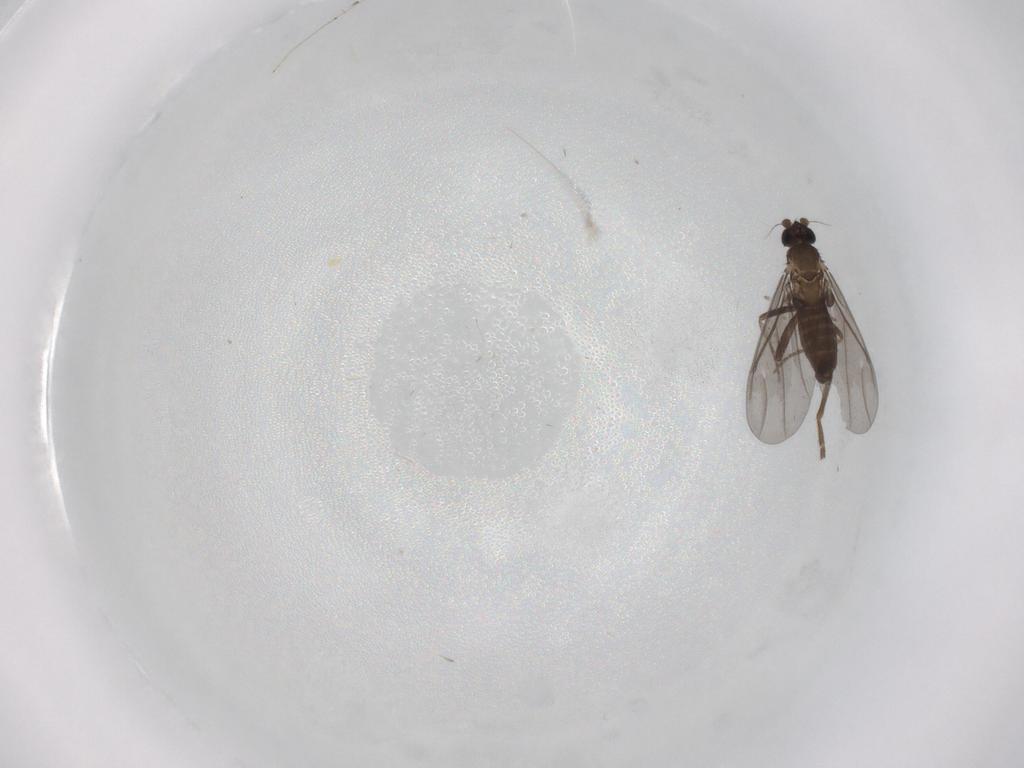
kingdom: Animalia
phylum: Arthropoda
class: Insecta
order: Diptera
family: Phoridae
